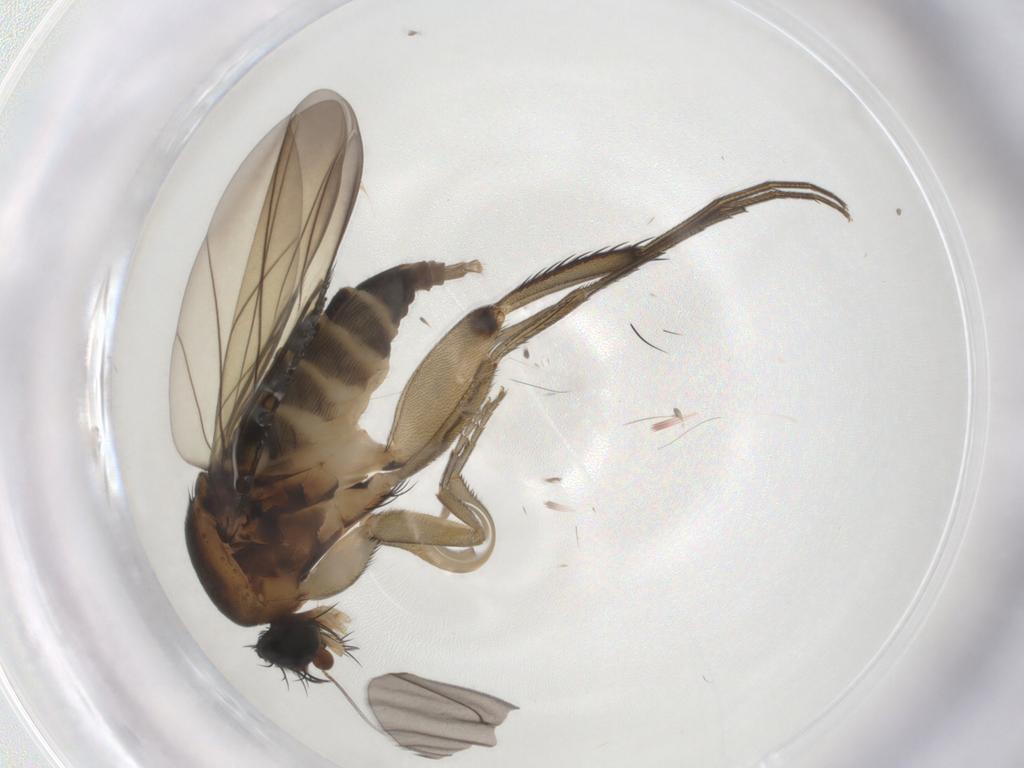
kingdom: Animalia
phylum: Arthropoda
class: Insecta
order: Diptera
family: Phoridae
